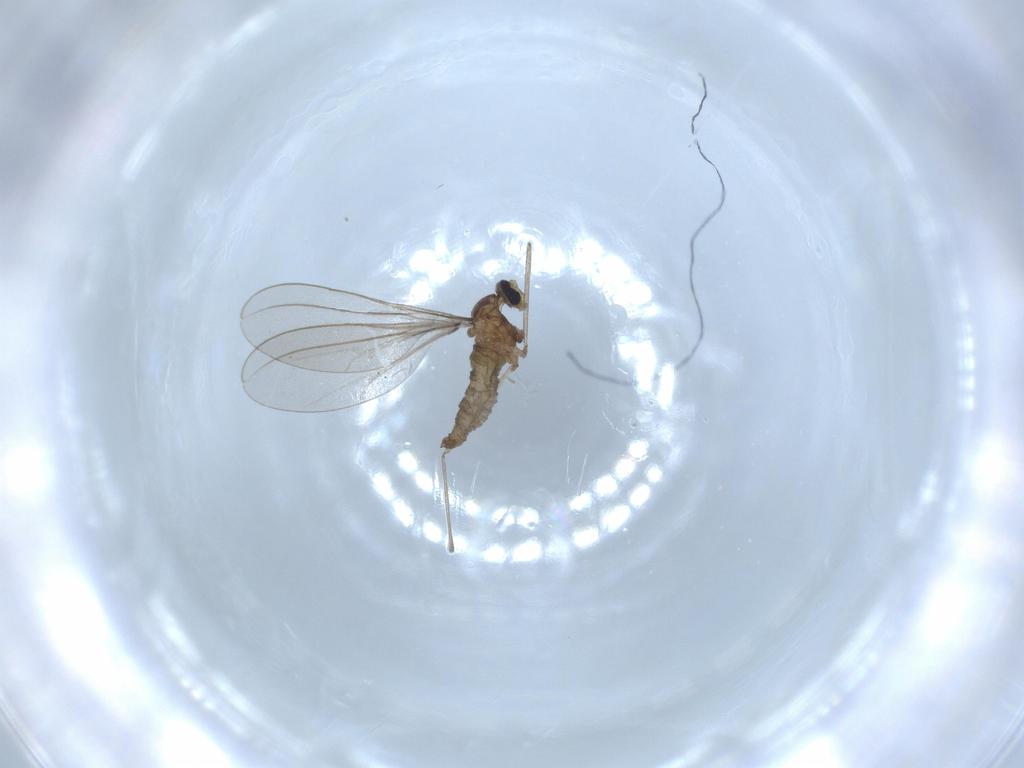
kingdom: Animalia
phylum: Arthropoda
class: Insecta
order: Diptera
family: Cecidomyiidae
